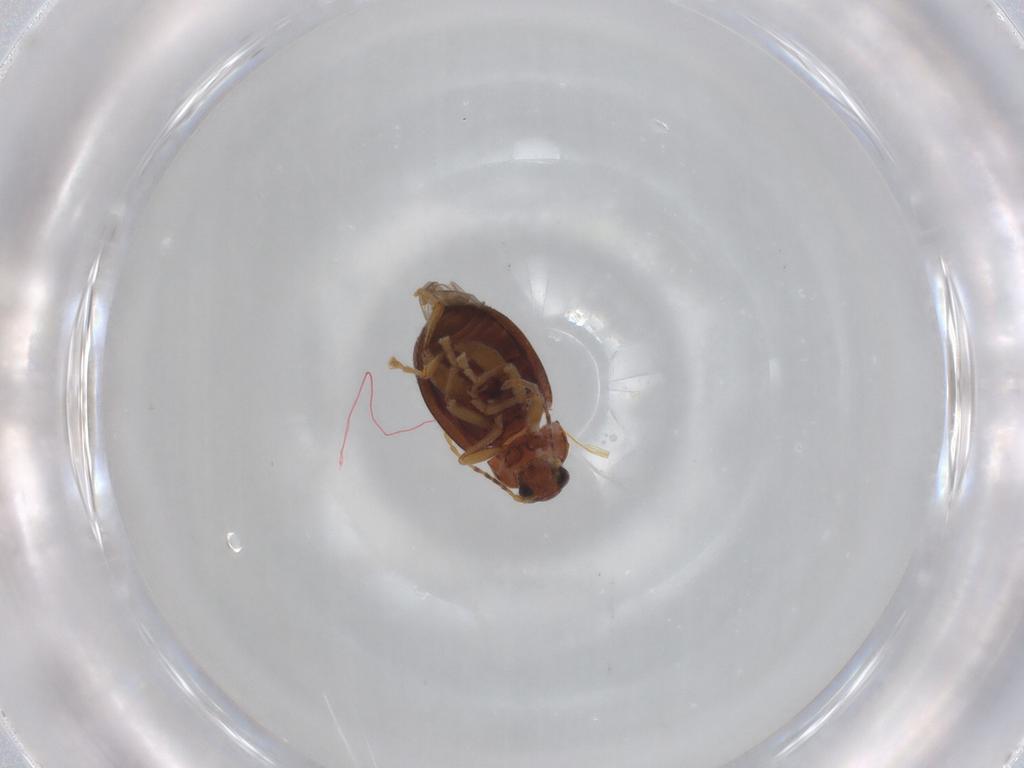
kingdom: Animalia
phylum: Arthropoda
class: Insecta
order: Coleoptera
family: Chrysomelidae
